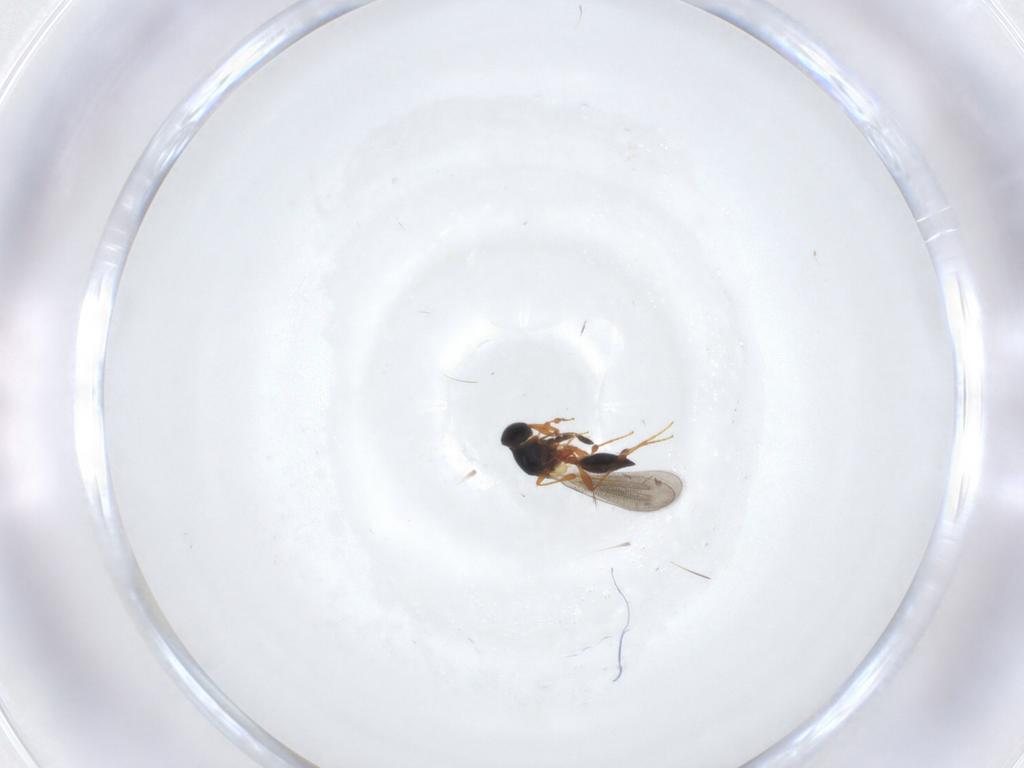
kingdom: Animalia
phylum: Arthropoda
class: Insecta
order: Hymenoptera
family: Platygastridae
